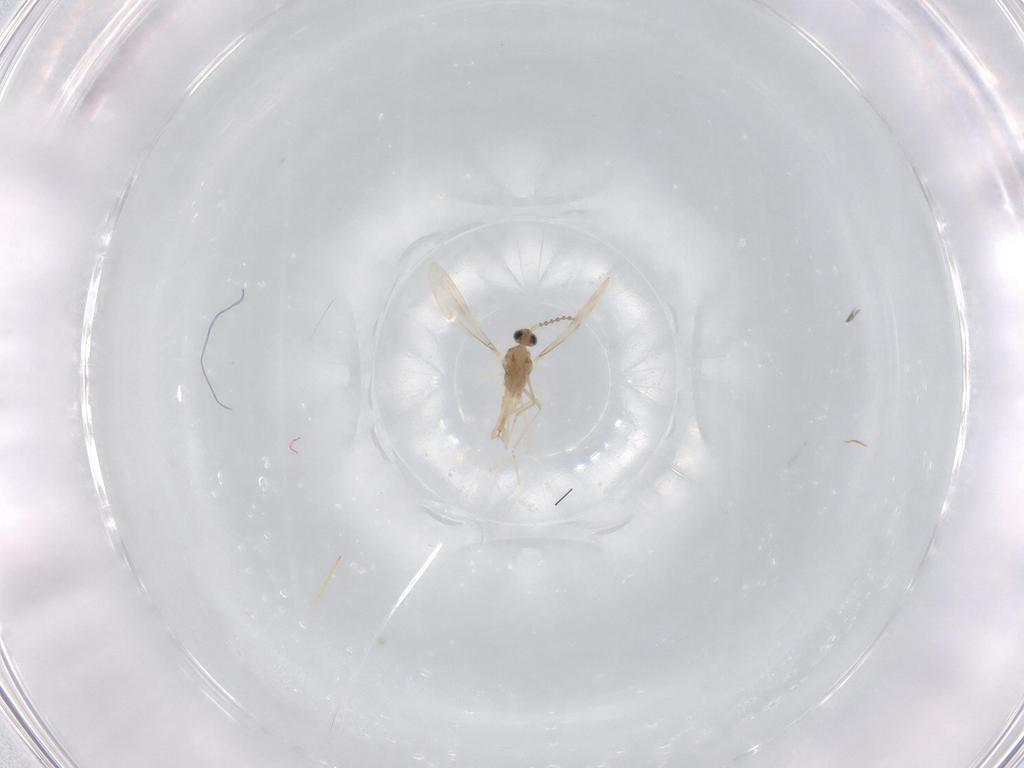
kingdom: Animalia
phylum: Arthropoda
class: Insecta
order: Diptera
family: Cecidomyiidae
